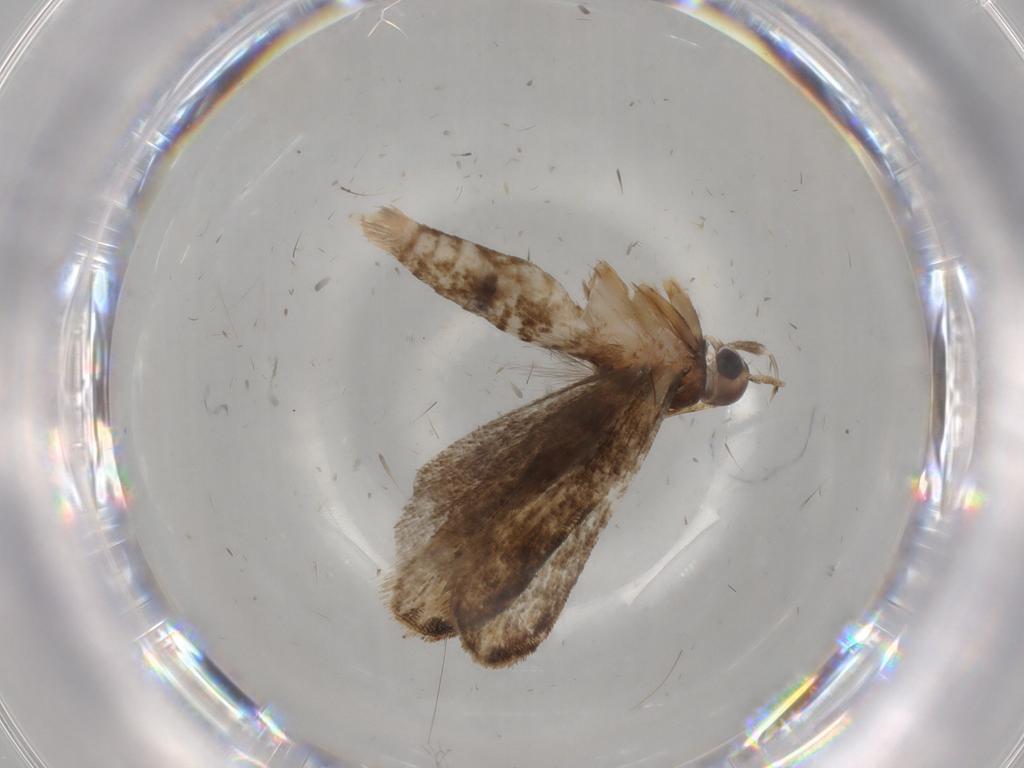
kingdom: Animalia
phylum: Arthropoda
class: Insecta
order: Lepidoptera
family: Gelechiidae
